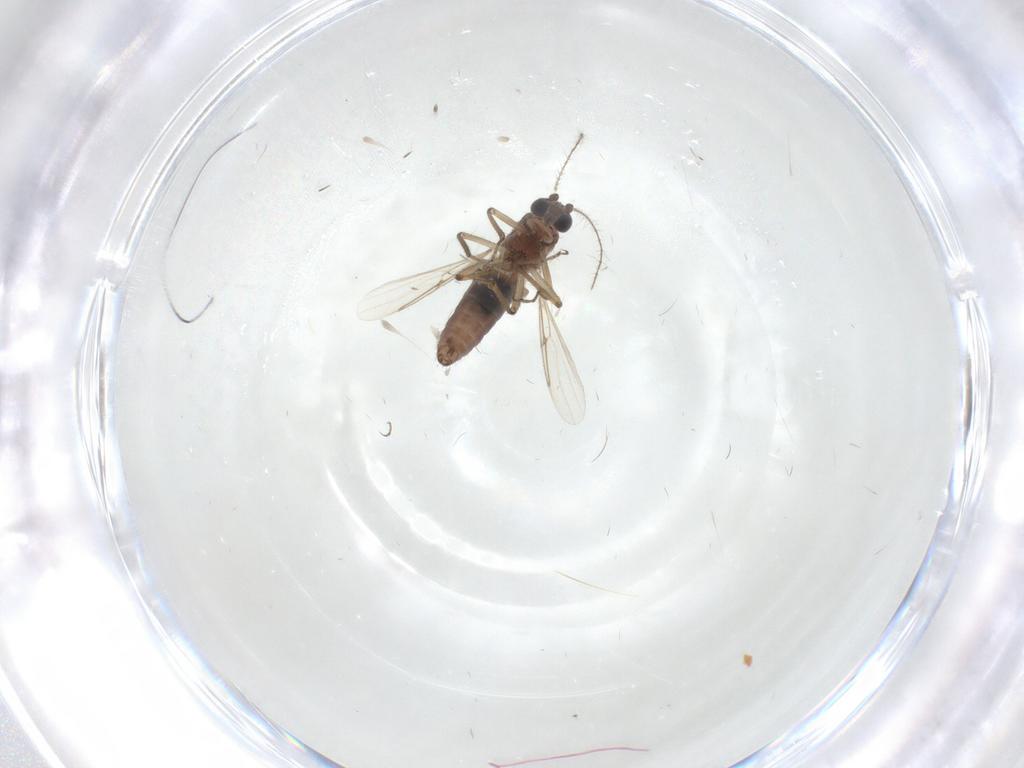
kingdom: Animalia
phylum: Arthropoda
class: Insecta
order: Diptera
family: Ceratopogonidae
